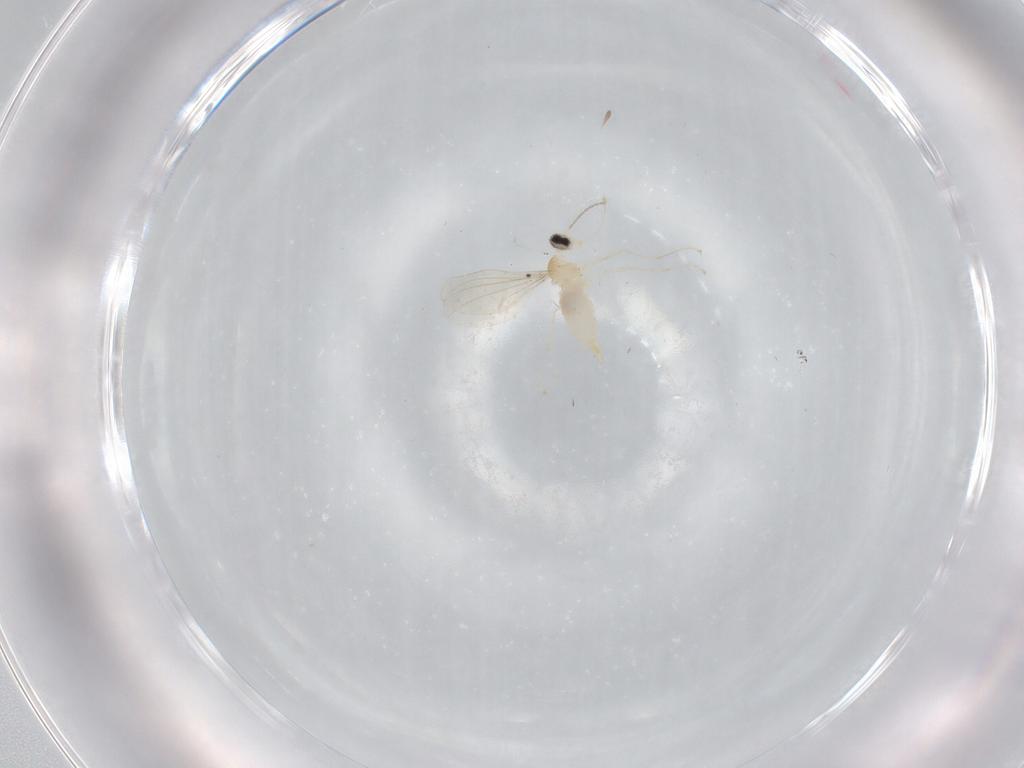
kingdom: Animalia
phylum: Arthropoda
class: Insecta
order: Diptera
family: Cecidomyiidae
